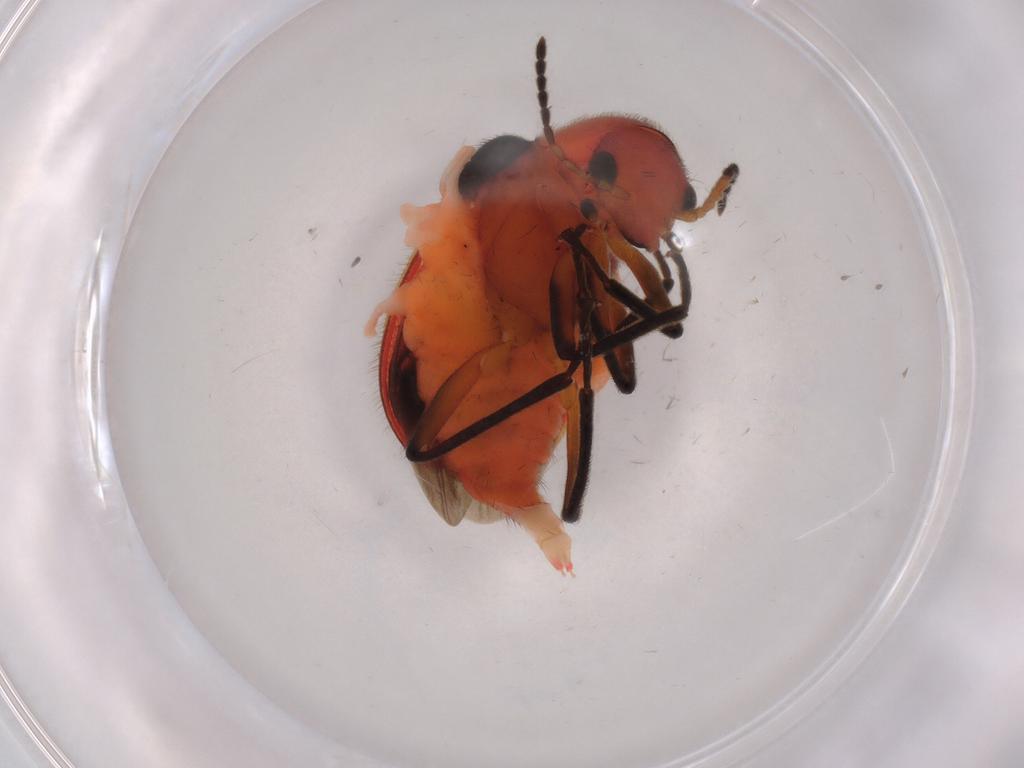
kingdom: Animalia
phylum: Arthropoda
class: Insecta
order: Coleoptera
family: Melyridae
